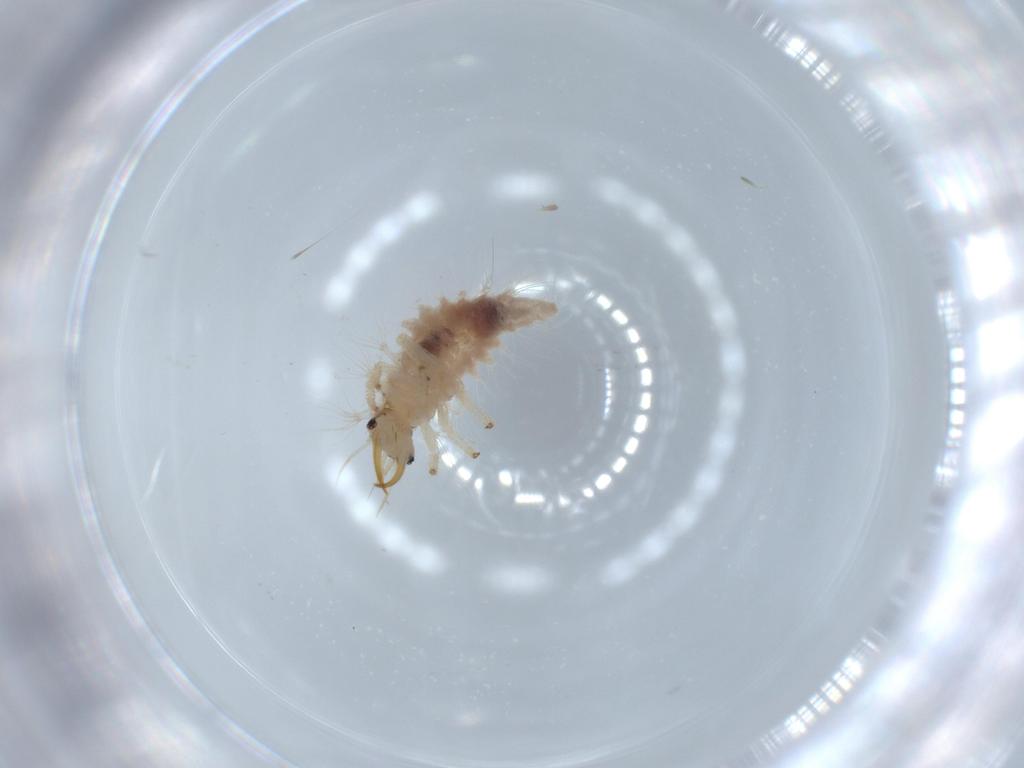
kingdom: Animalia
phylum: Arthropoda
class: Insecta
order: Neuroptera
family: Chrysopidae
